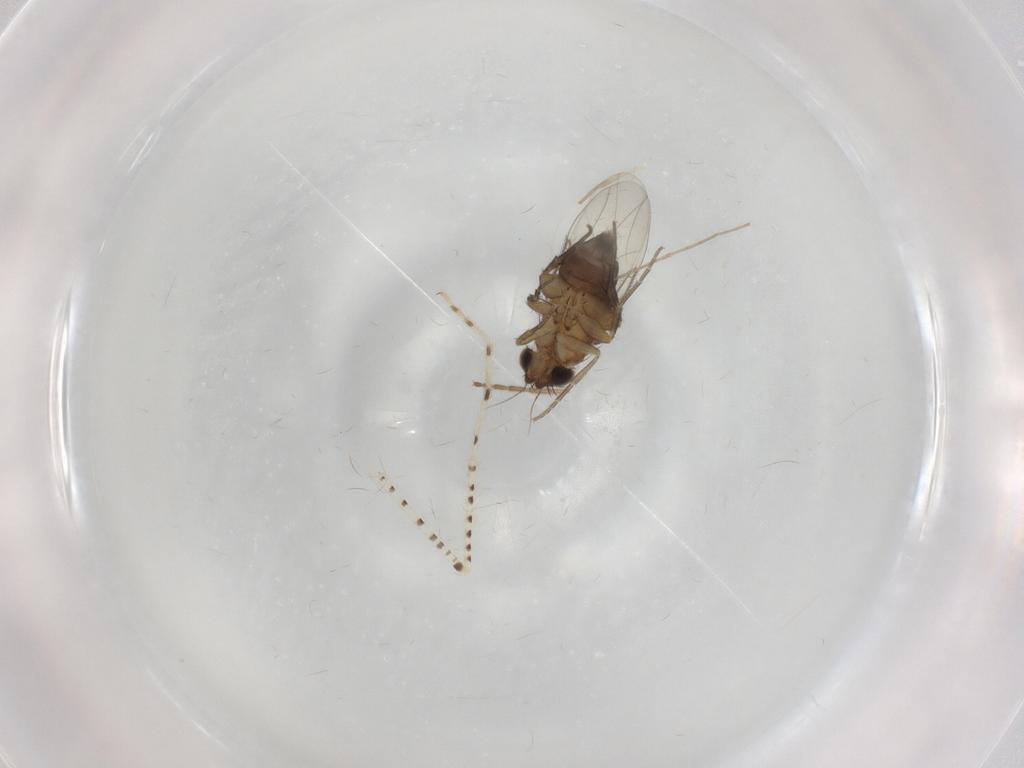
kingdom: Animalia
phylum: Arthropoda
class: Insecta
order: Diptera
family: Phoridae
